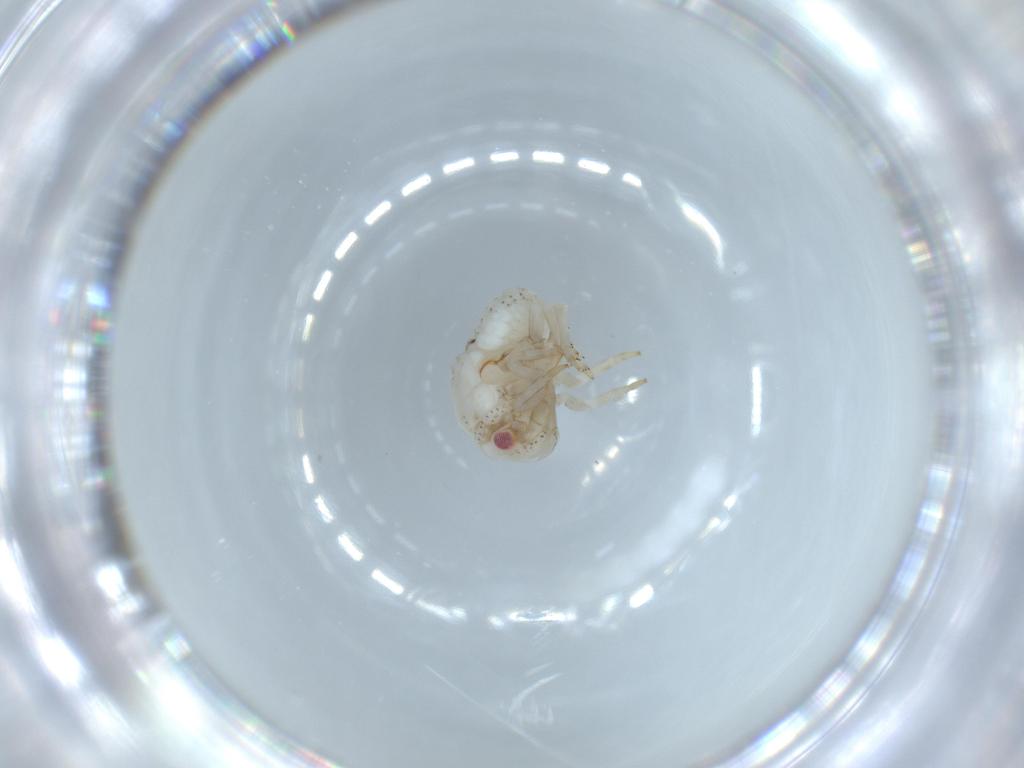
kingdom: Animalia
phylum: Arthropoda
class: Insecta
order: Hemiptera
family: Acanaloniidae
